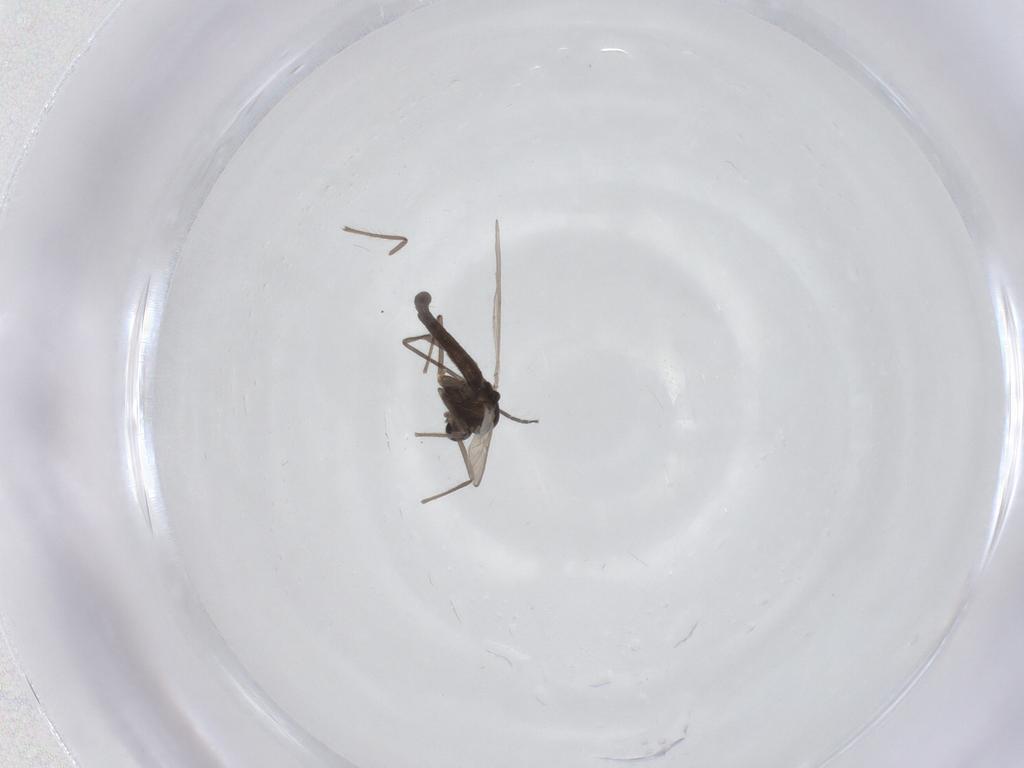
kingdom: Animalia
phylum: Arthropoda
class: Insecta
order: Diptera
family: Chironomidae
